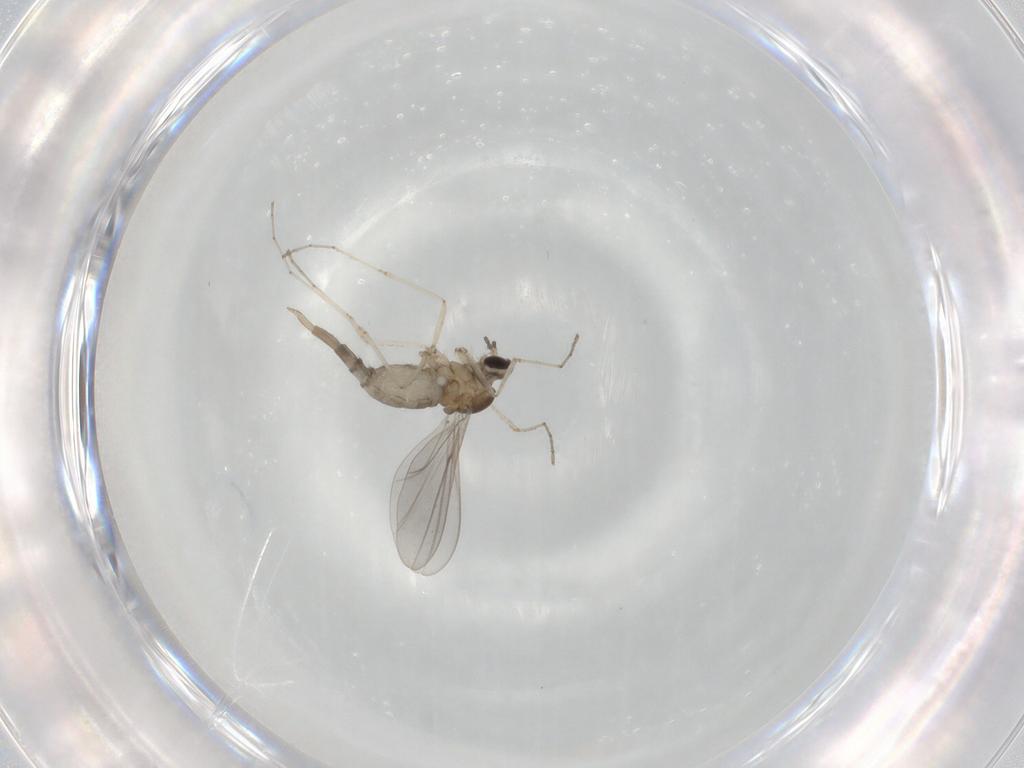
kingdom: Animalia
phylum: Arthropoda
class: Insecta
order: Diptera
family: Cecidomyiidae
